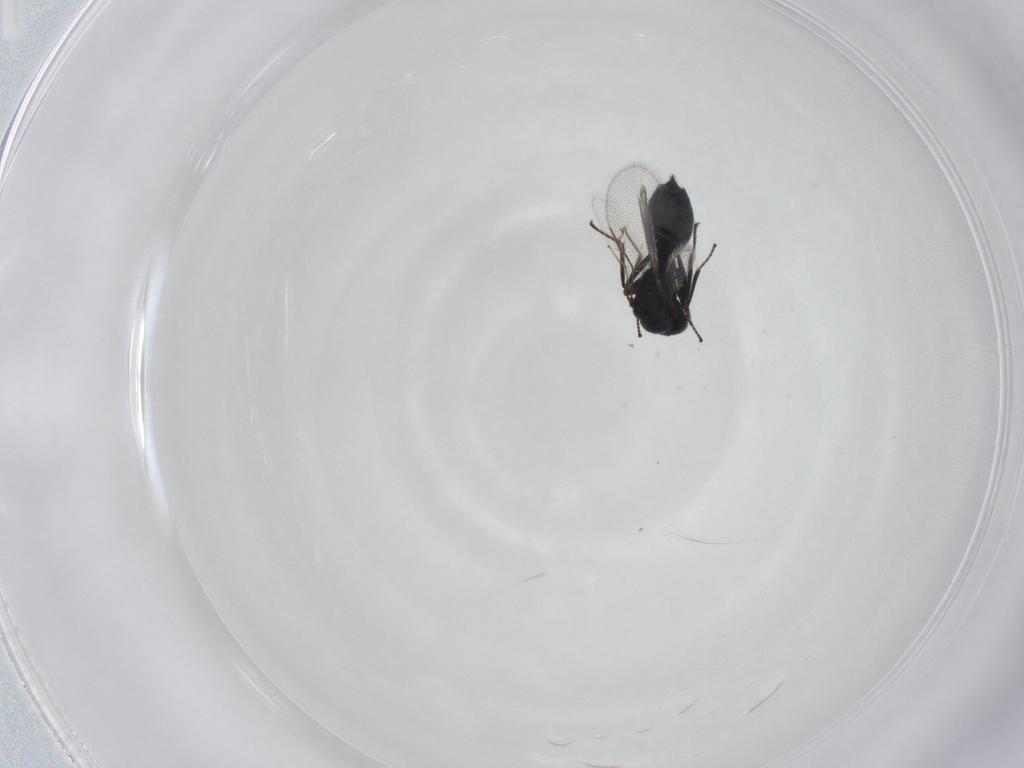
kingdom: Animalia
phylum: Arthropoda
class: Insecta
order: Hymenoptera
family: Pteromalidae
